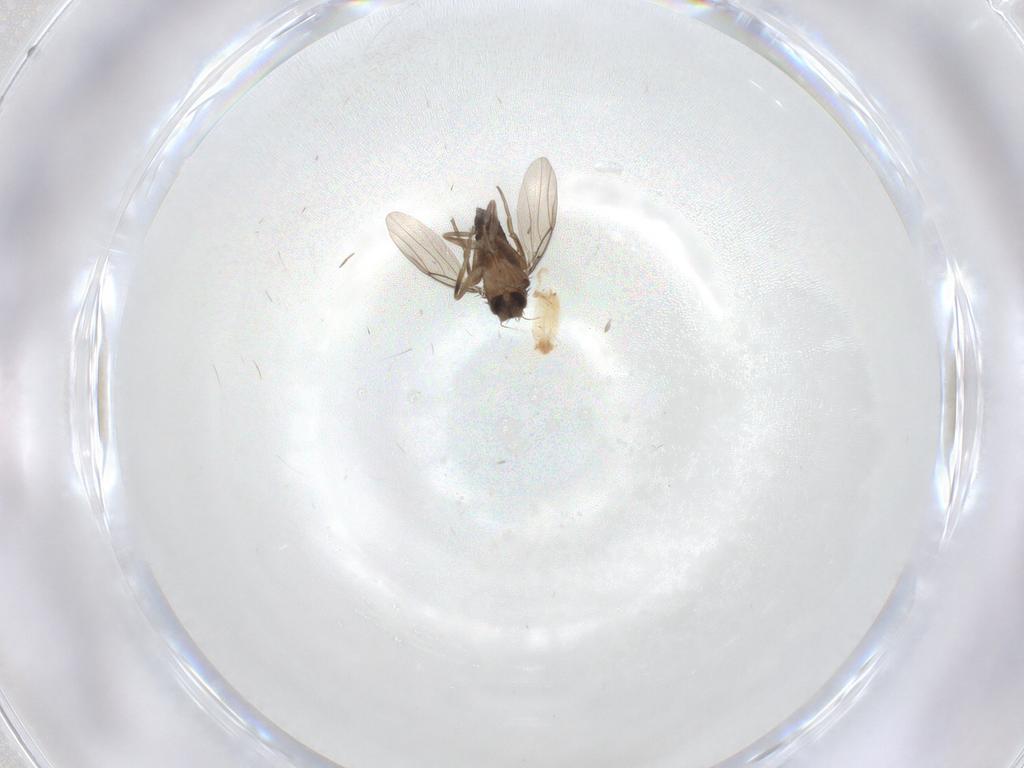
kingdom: Animalia
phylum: Arthropoda
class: Insecta
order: Diptera
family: Phoridae
